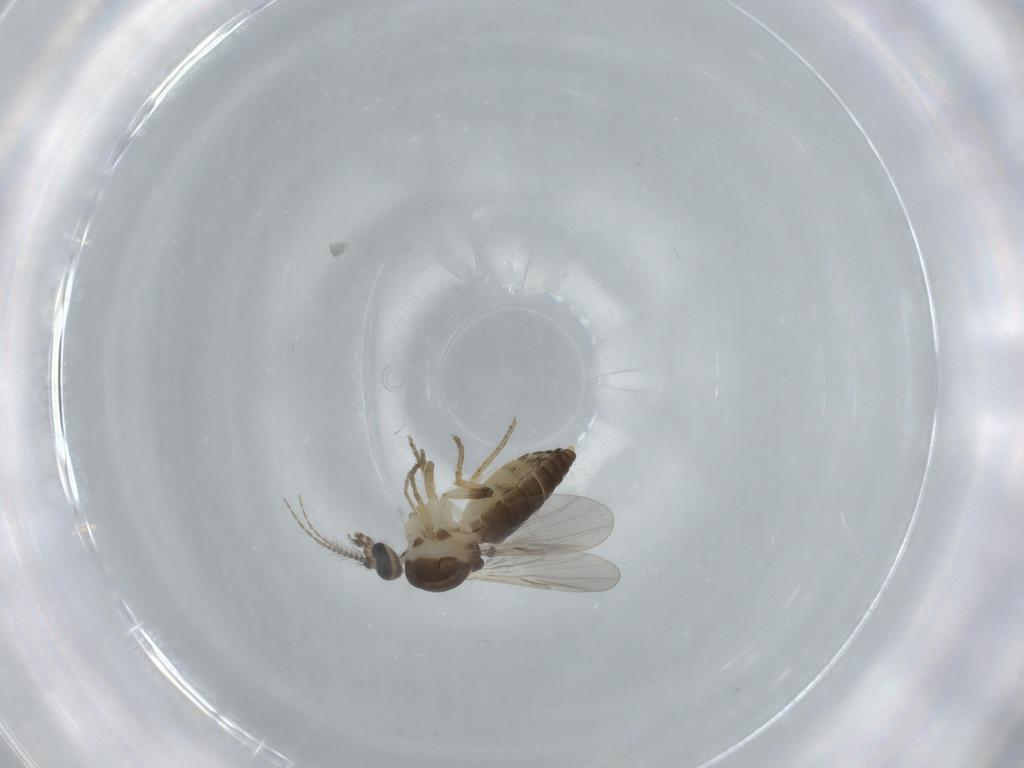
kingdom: Animalia
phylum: Arthropoda
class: Insecta
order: Diptera
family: Ceratopogonidae
